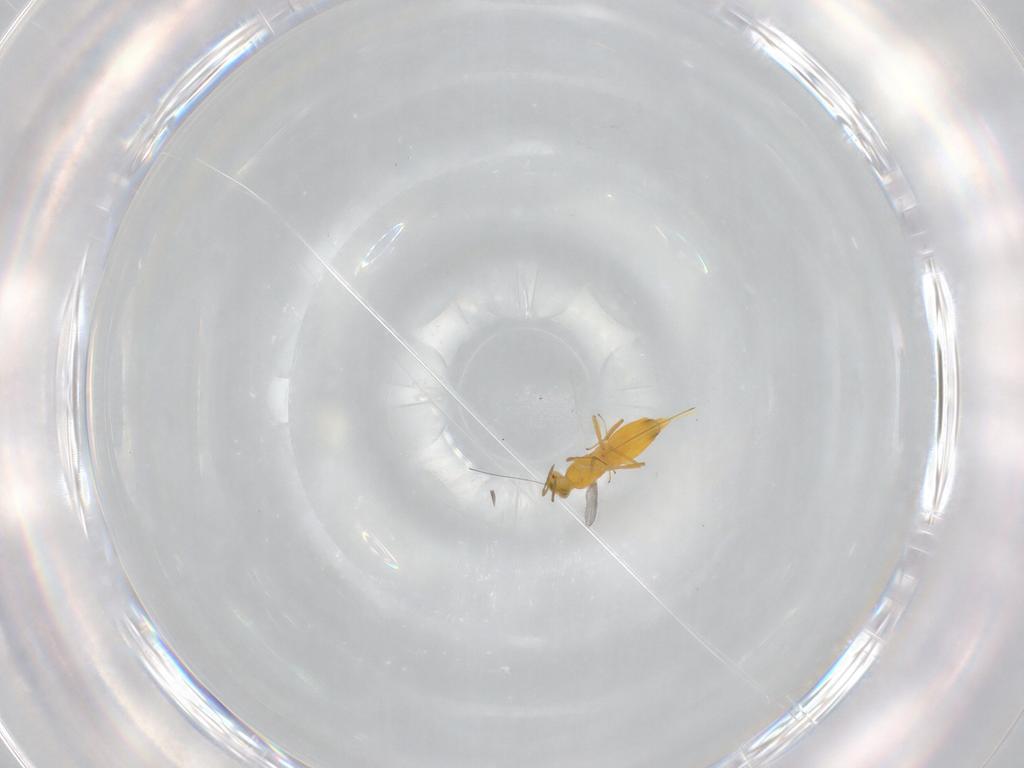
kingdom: Animalia
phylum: Arthropoda
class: Insecta
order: Hymenoptera
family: Aphelinidae
